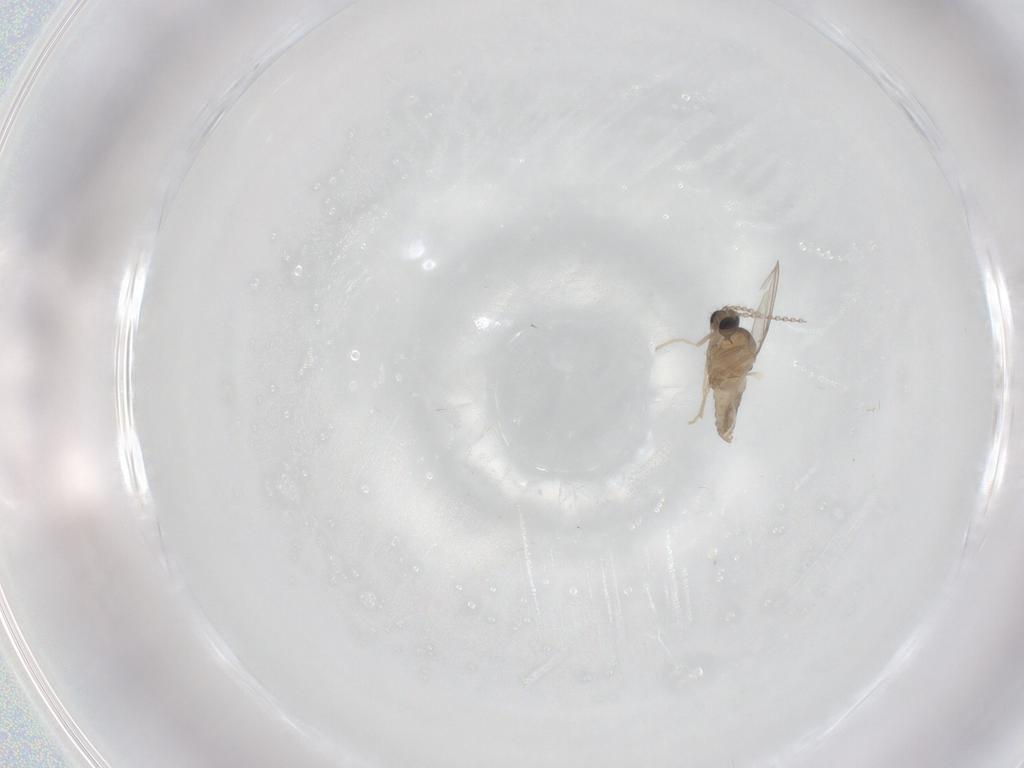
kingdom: Animalia
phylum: Arthropoda
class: Insecta
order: Diptera
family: Cecidomyiidae
